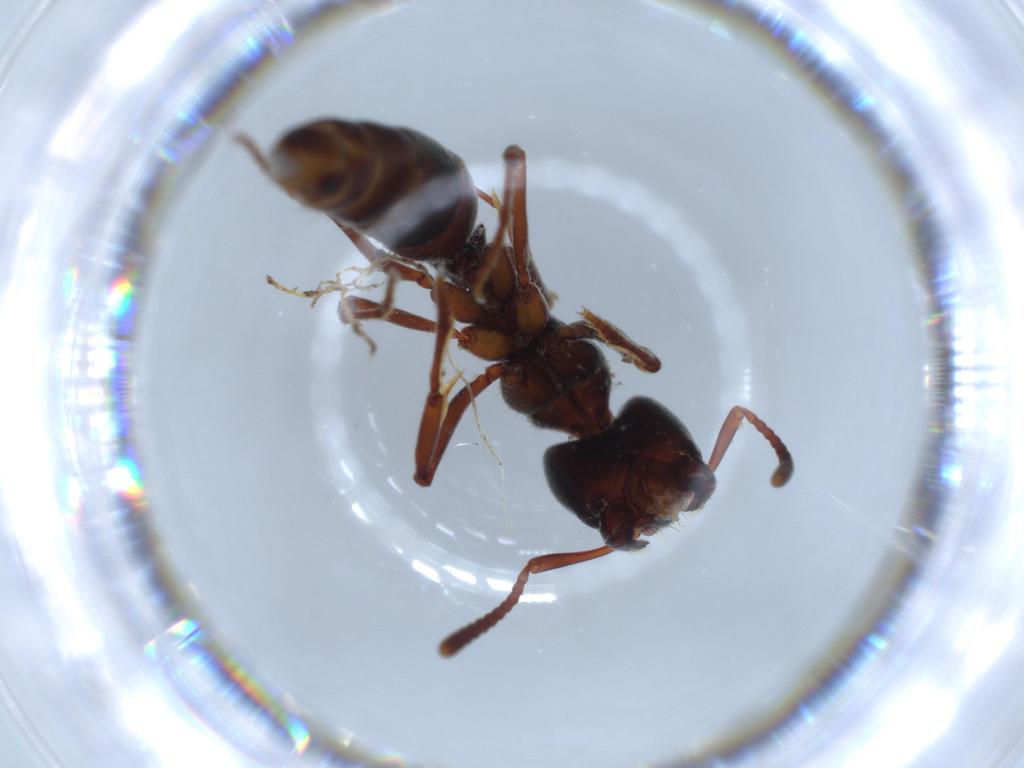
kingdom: Animalia
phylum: Arthropoda
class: Insecta
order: Hymenoptera
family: Formicidae
